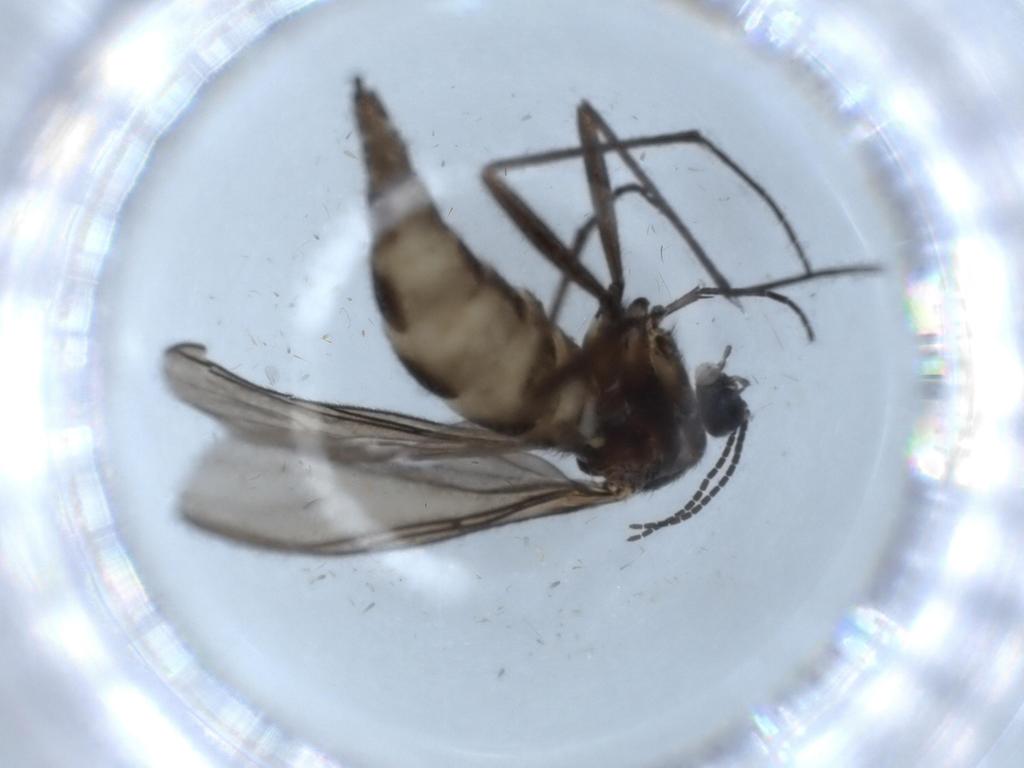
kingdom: Animalia
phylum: Arthropoda
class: Insecta
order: Diptera
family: Sciaridae
